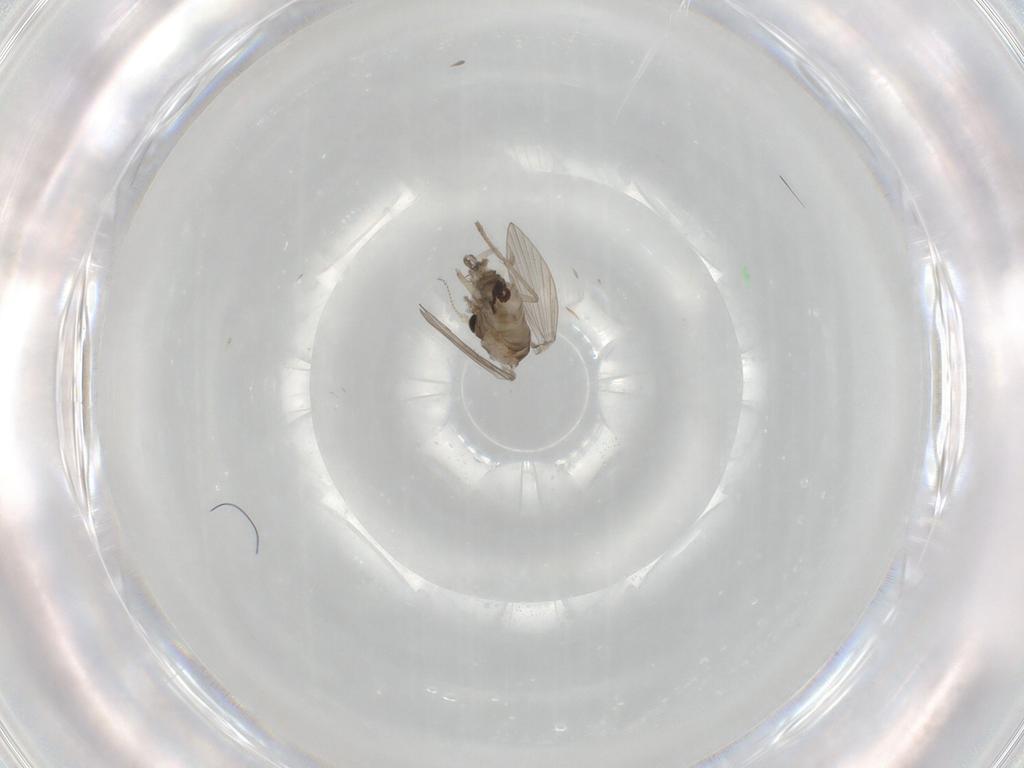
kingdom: Animalia
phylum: Arthropoda
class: Insecta
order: Diptera
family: Psychodidae
